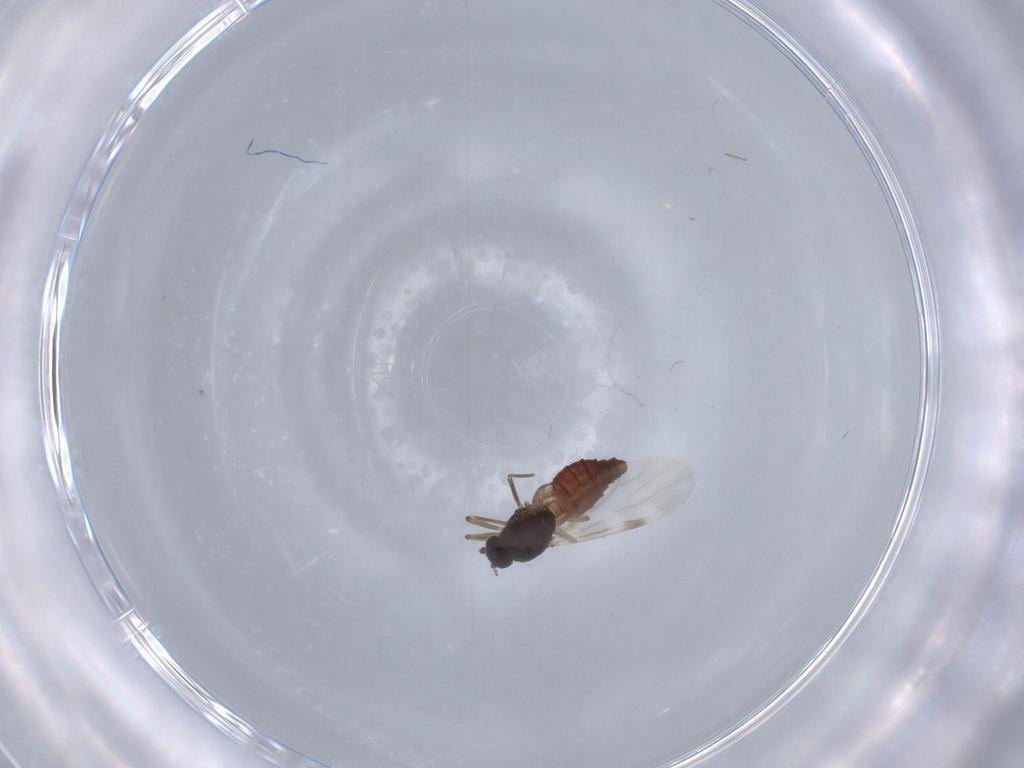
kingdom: Animalia
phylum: Arthropoda
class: Insecta
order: Diptera
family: Ceratopogonidae
